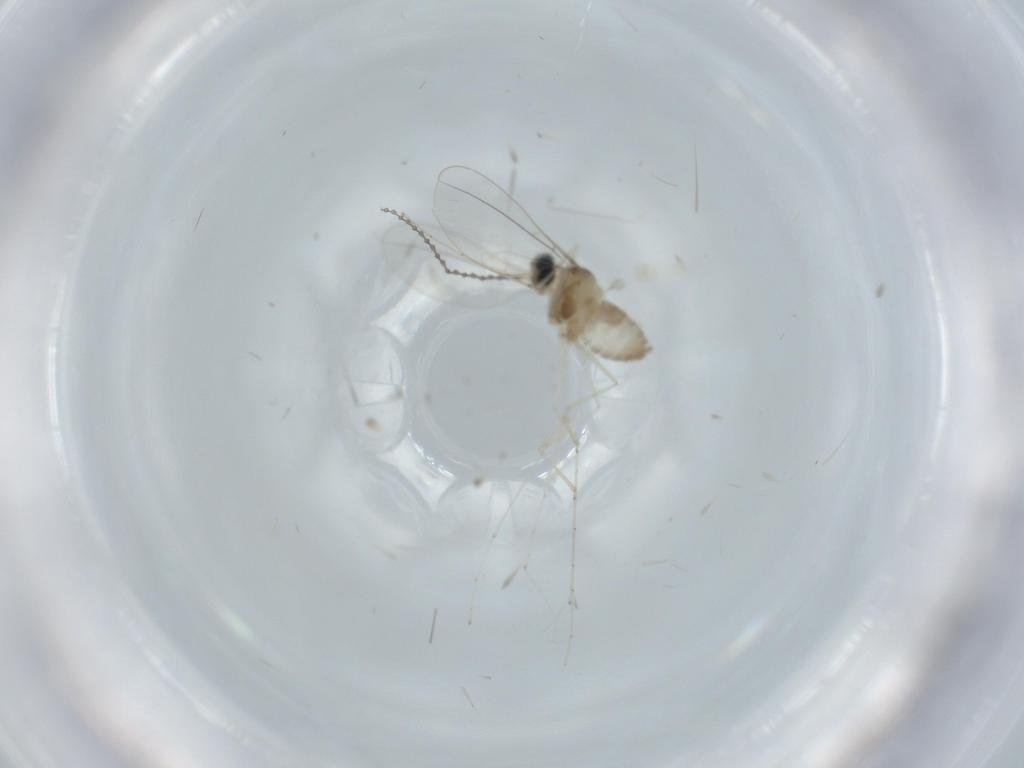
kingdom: Animalia
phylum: Arthropoda
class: Insecta
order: Diptera
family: Cecidomyiidae
